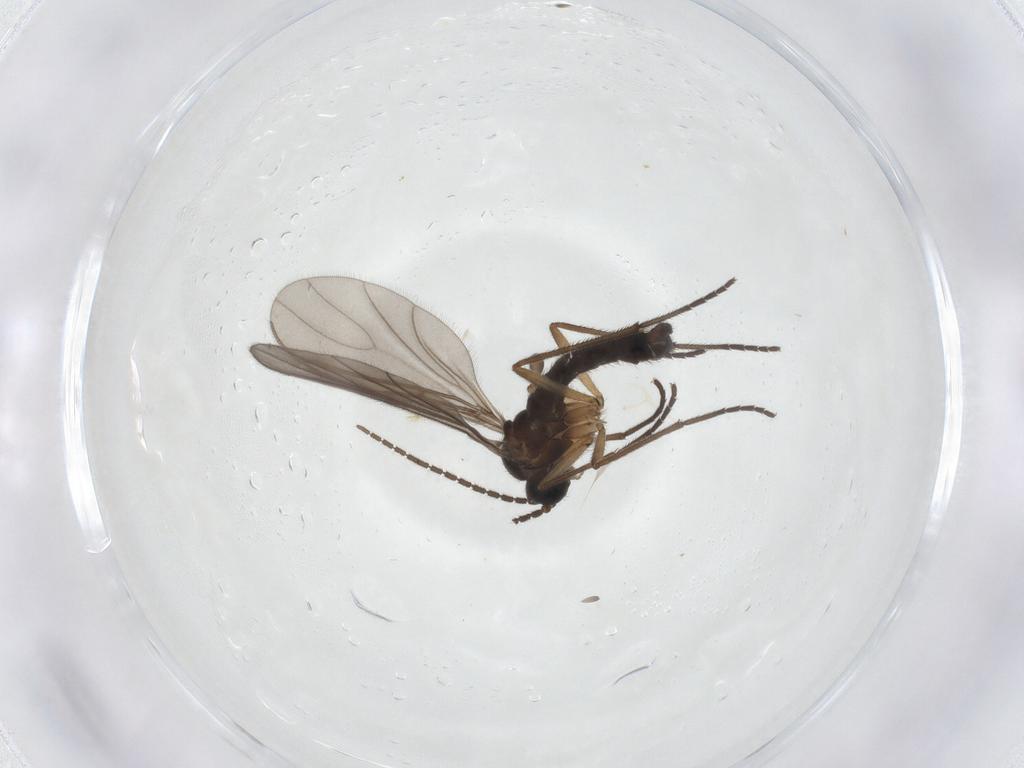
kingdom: Animalia
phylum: Arthropoda
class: Insecta
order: Diptera
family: Sciaridae
